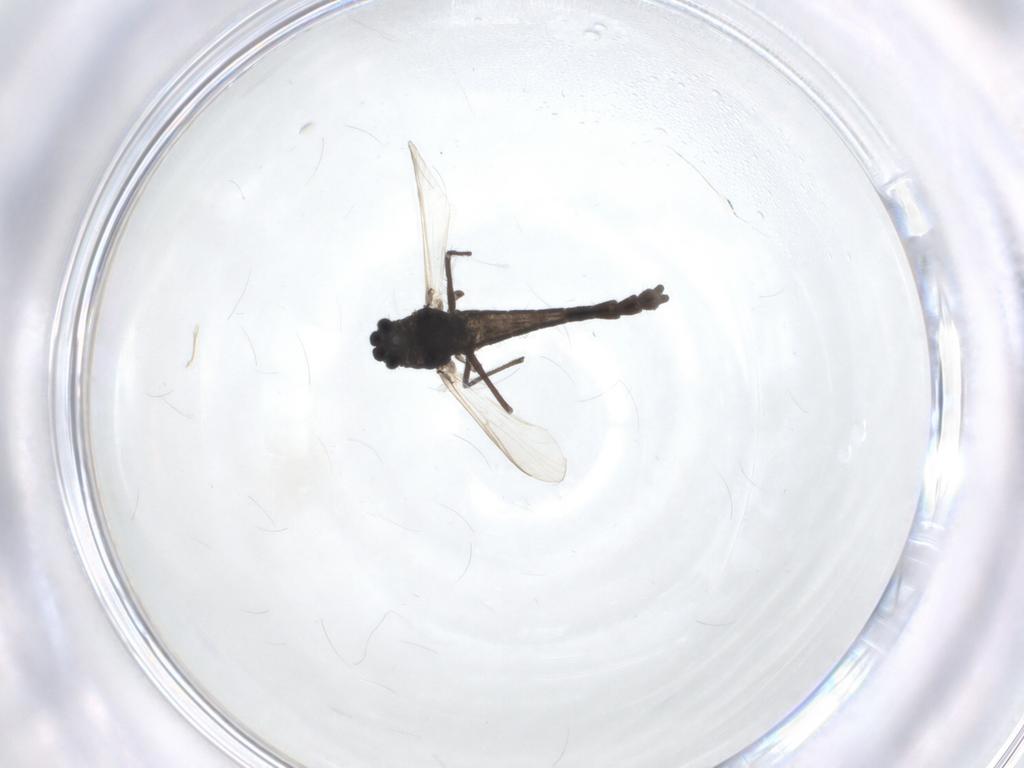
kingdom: Animalia
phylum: Arthropoda
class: Insecta
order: Diptera
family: Chironomidae
